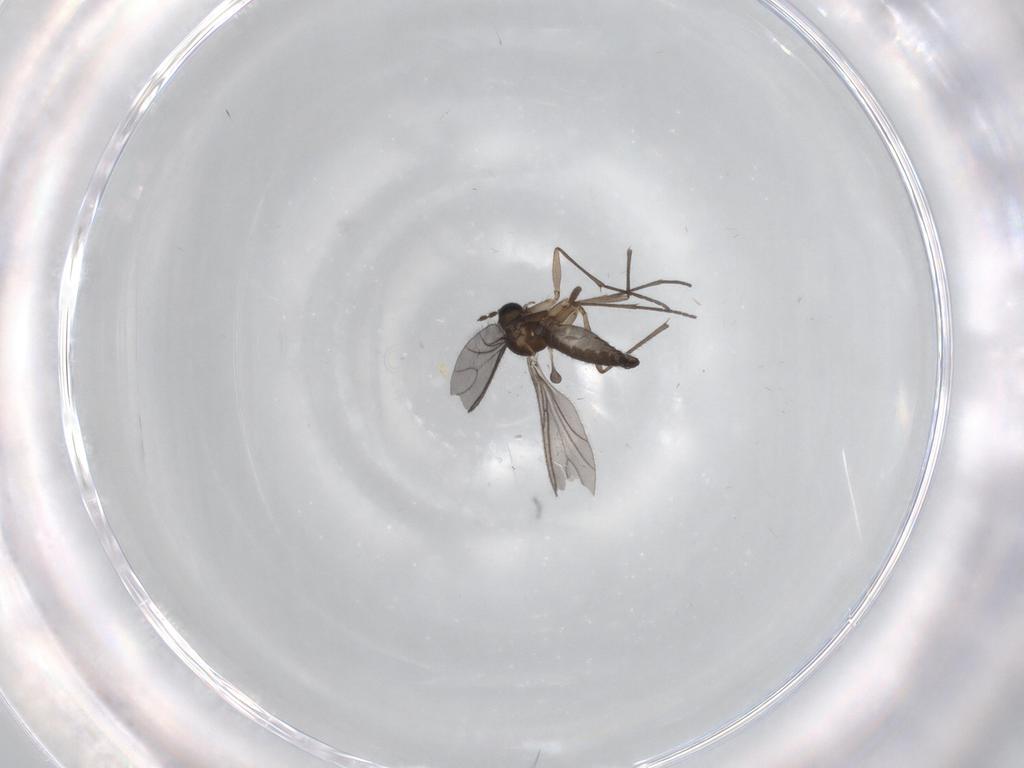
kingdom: Animalia
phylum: Arthropoda
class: Insecta
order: Diptera
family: Sciaridae
